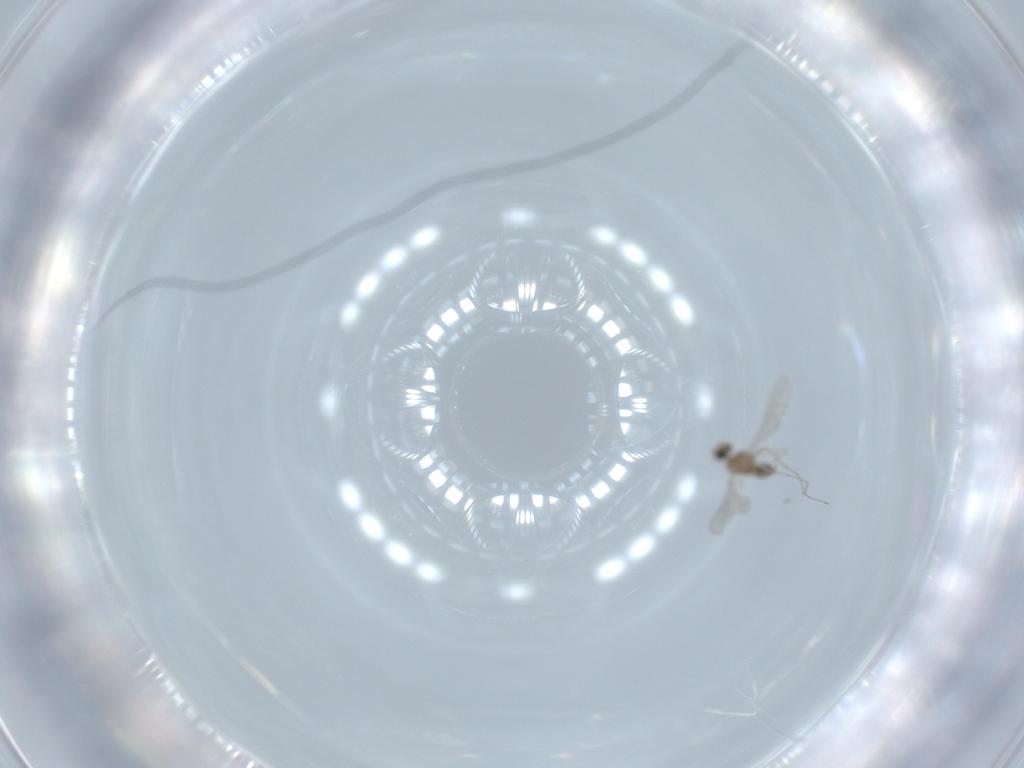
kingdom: Animalia
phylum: Arthropoda
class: Insecta
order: Diptera
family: Cecidomyiidae
